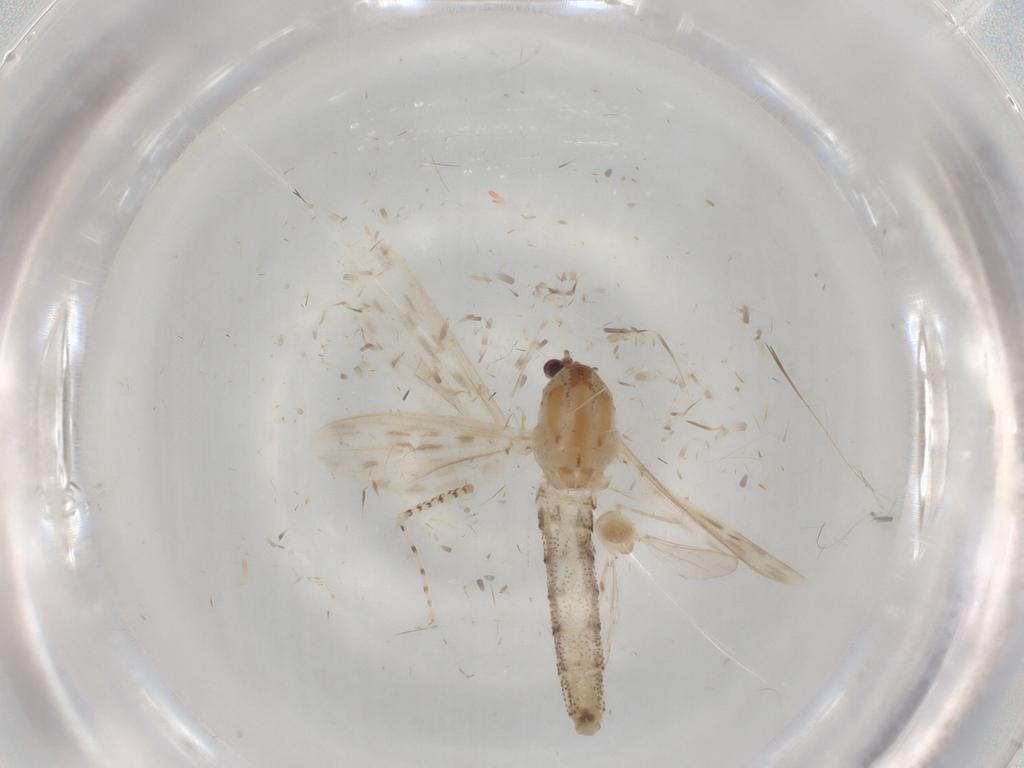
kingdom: Animalia
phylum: Arthropoda
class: Insecta
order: Diptera
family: Chaoboridae
